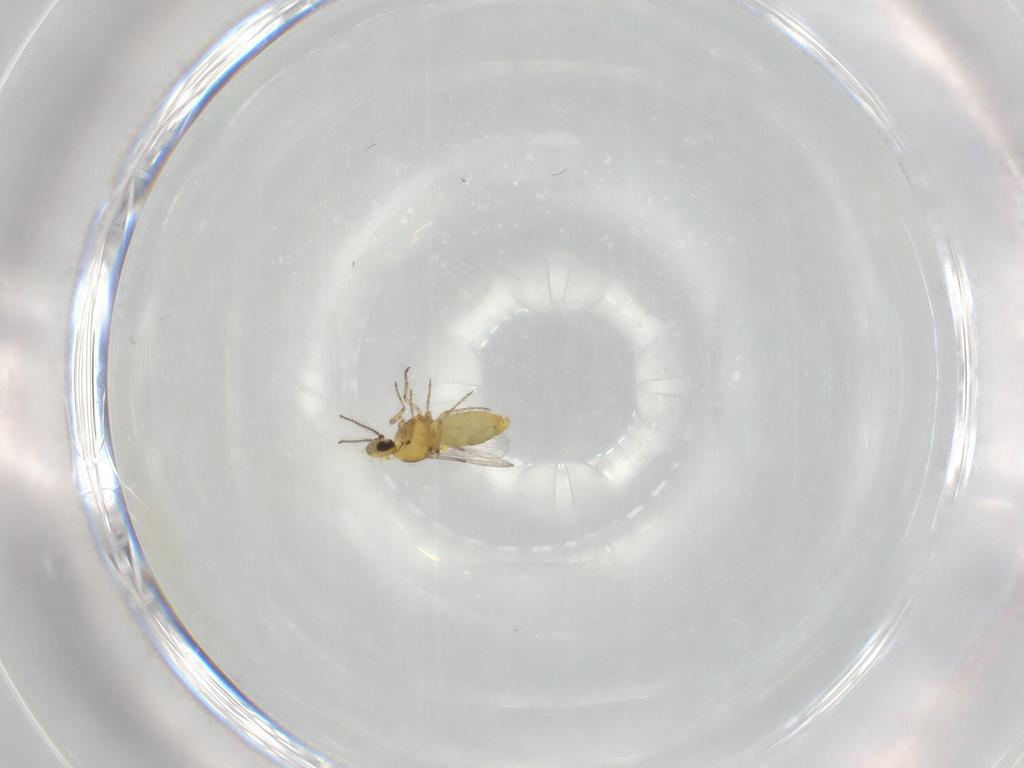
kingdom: Animalia
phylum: Arthropoda
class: Insecta
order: Diptera
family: Ceratopogonidae
